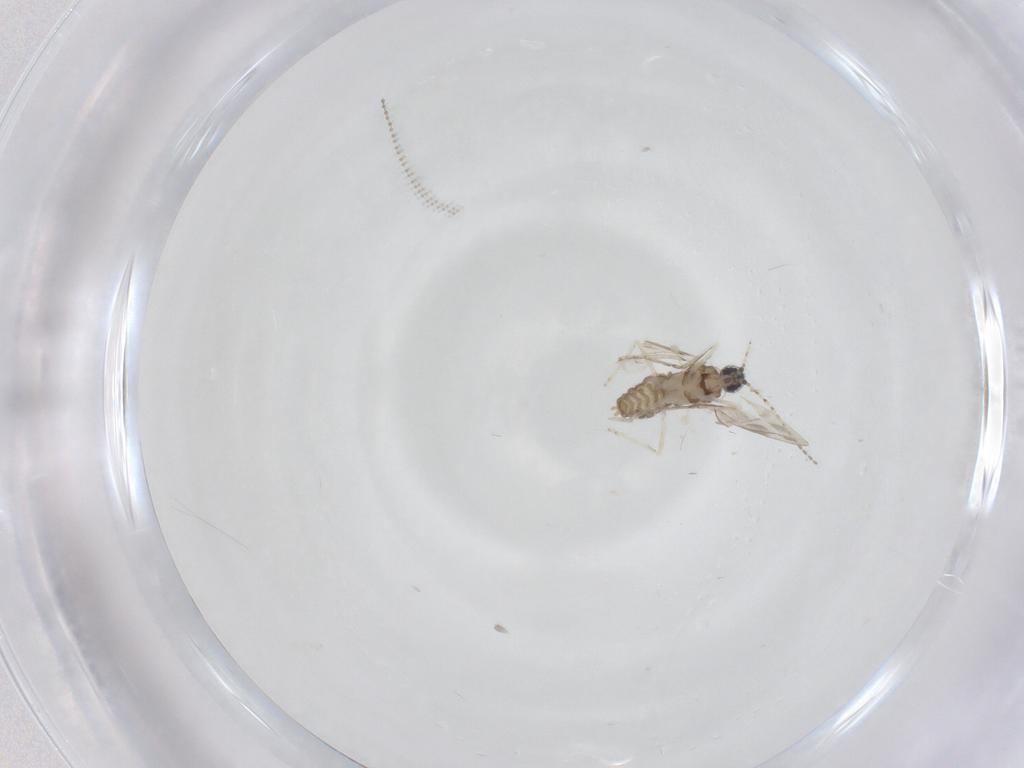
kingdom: Animalia
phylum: Arthropoda
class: Insecta
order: Diptera
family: Cecidomyiidae
